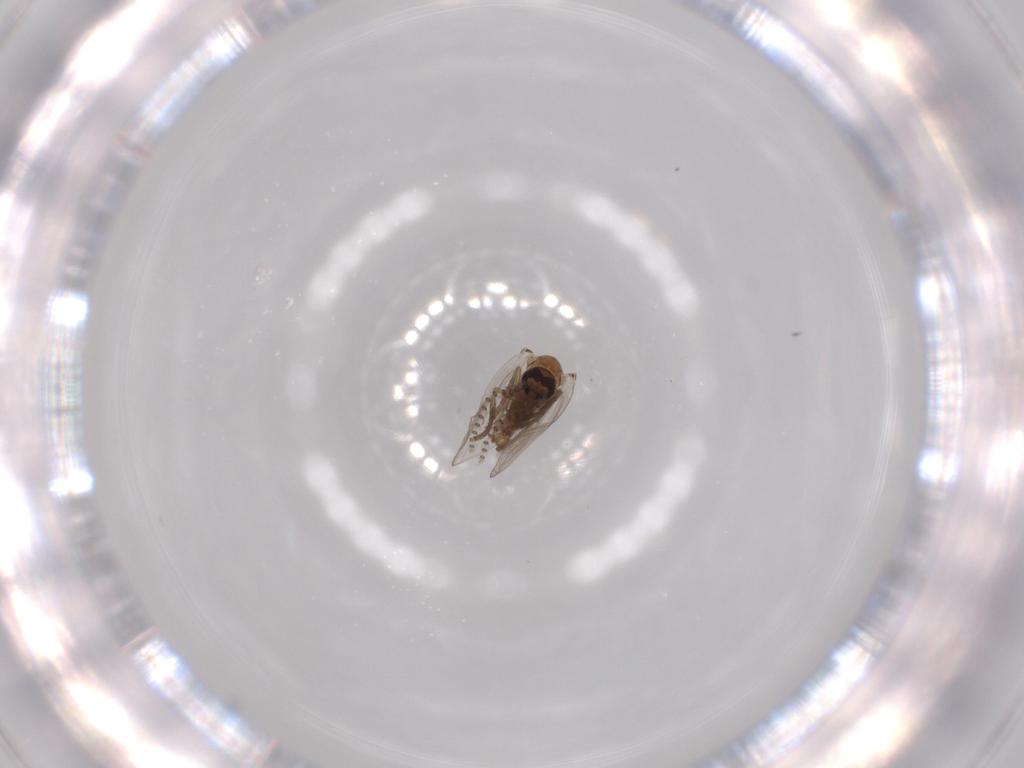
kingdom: Animalia
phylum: Arthropoda
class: Insecta
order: Diptera
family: Psychodidae
